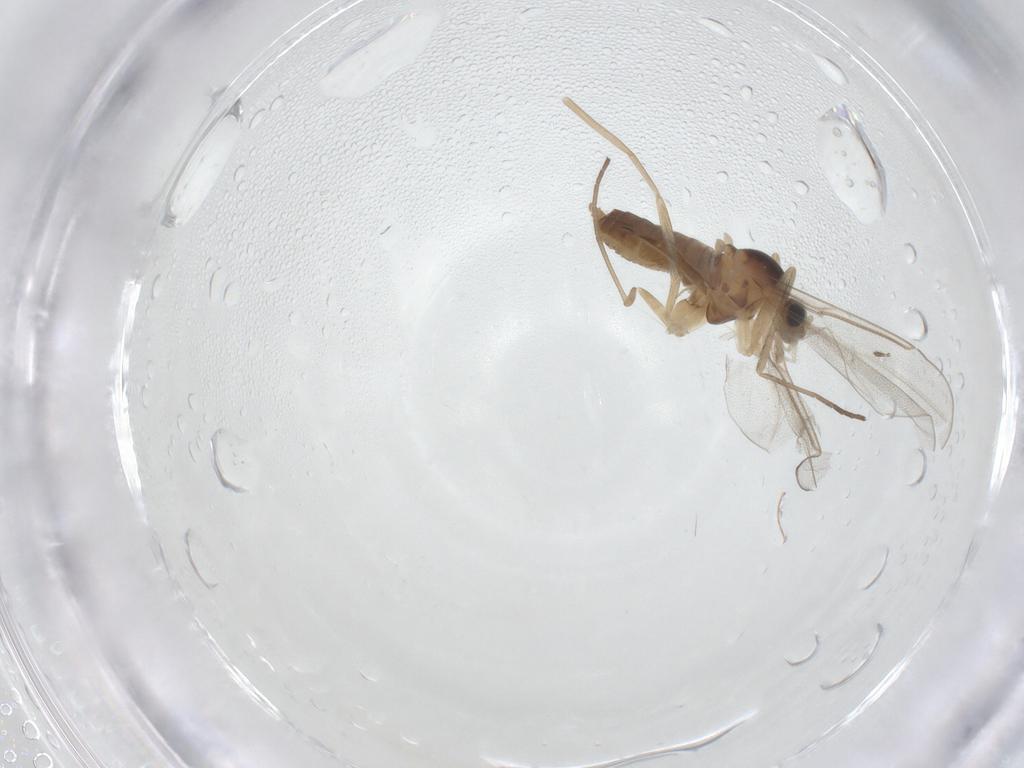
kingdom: Animalia
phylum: Arthropoda
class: Insecta
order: Diptera
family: Cecidomyiidae
